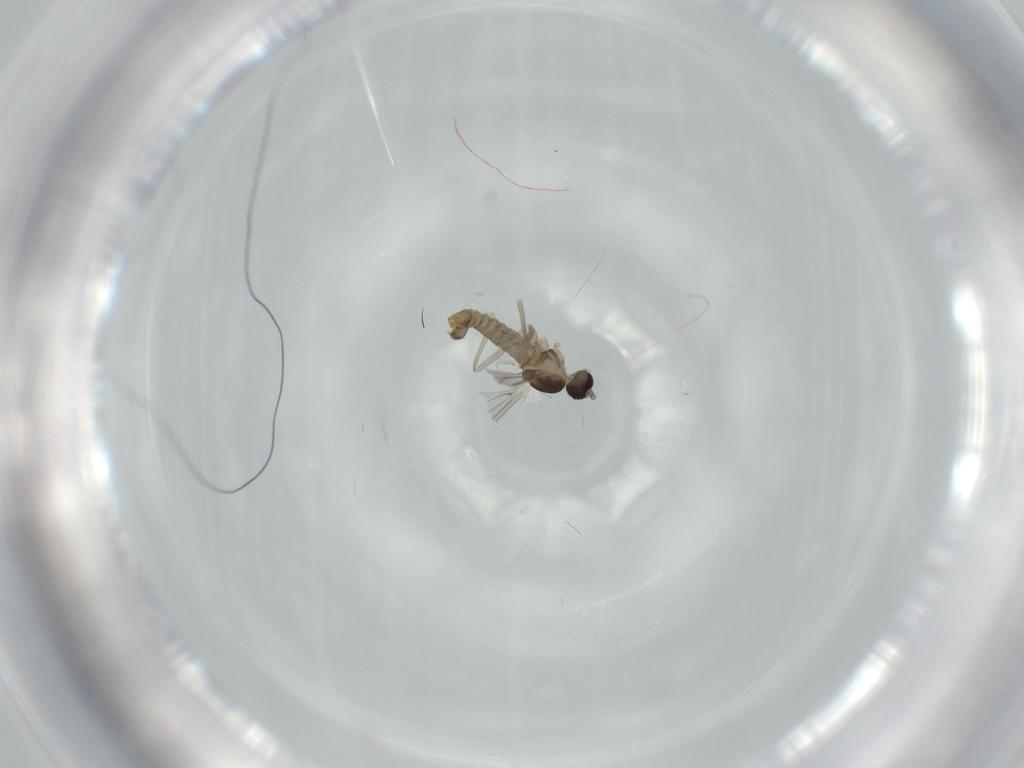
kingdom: Animalia
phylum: Arthropoda
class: Insecta
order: Diptera
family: Cecidomyiidae
